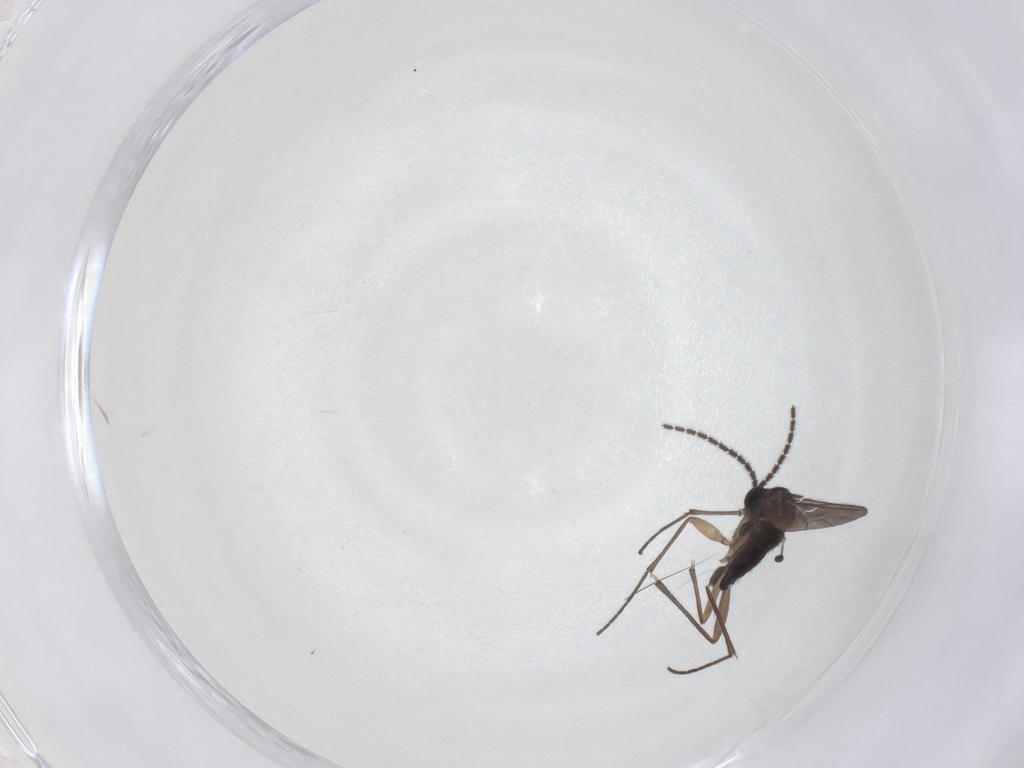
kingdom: Animalia
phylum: Arthropoda
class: Insecta
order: Diptera
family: Sciaridae
